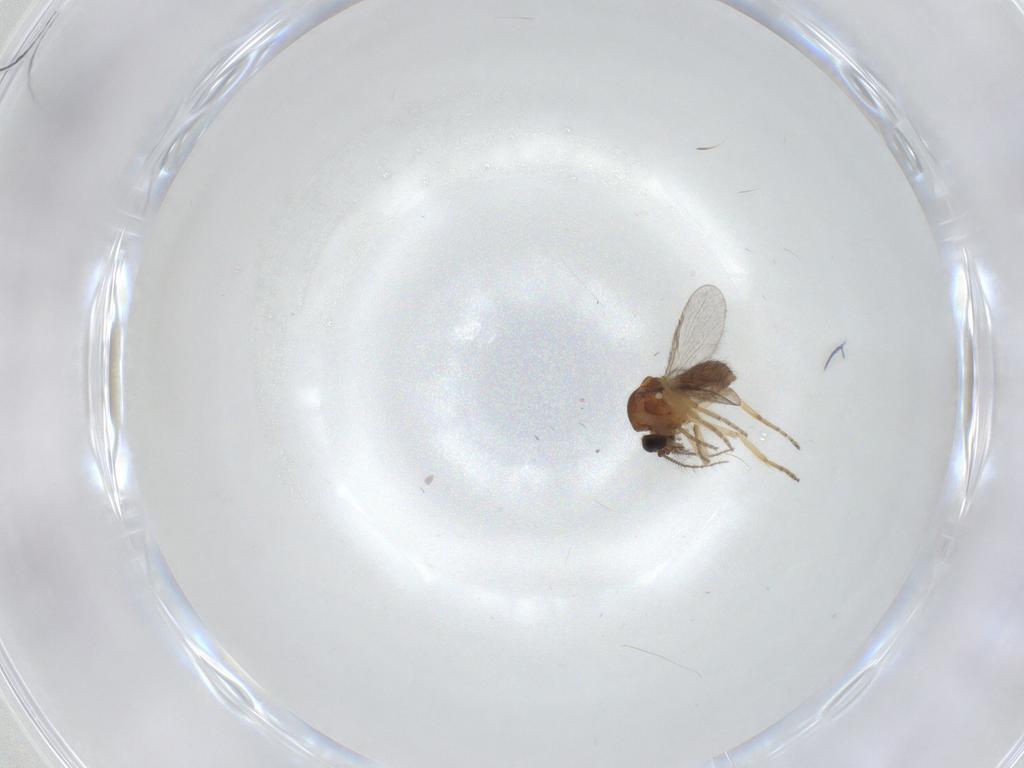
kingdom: Animalia
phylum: Arthropoda
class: Insecta
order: Diptera
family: Ceratopogonidae
